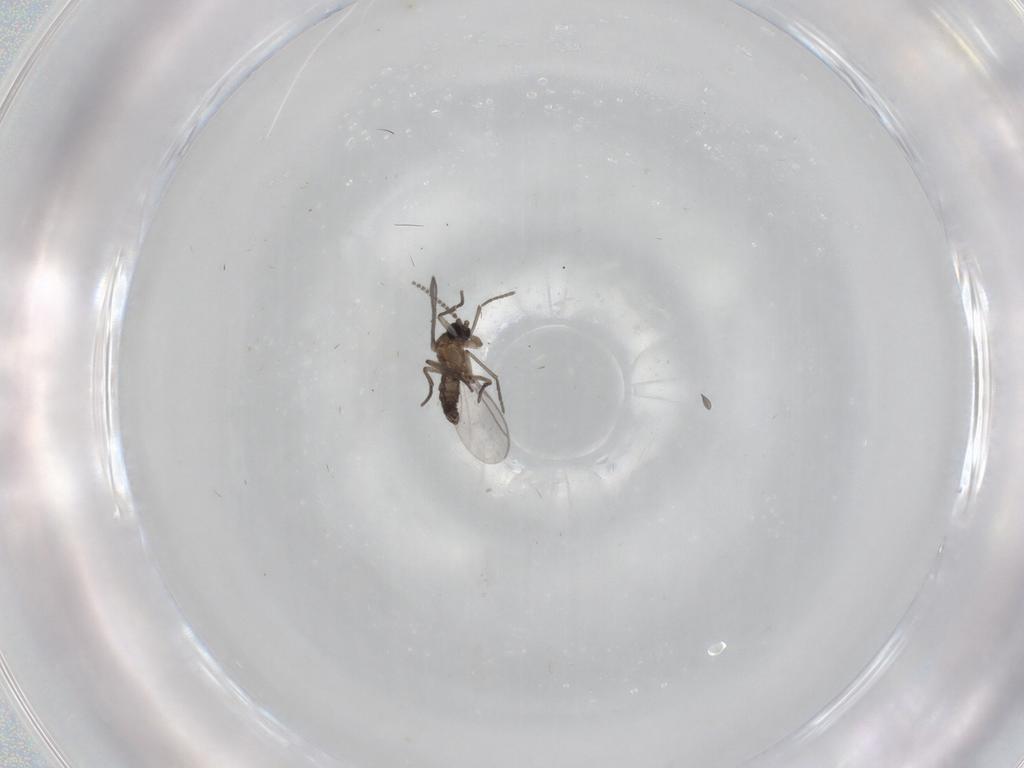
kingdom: Animalia
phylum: Arthropoda
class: Insecta
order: Diptera
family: Limoniidae
